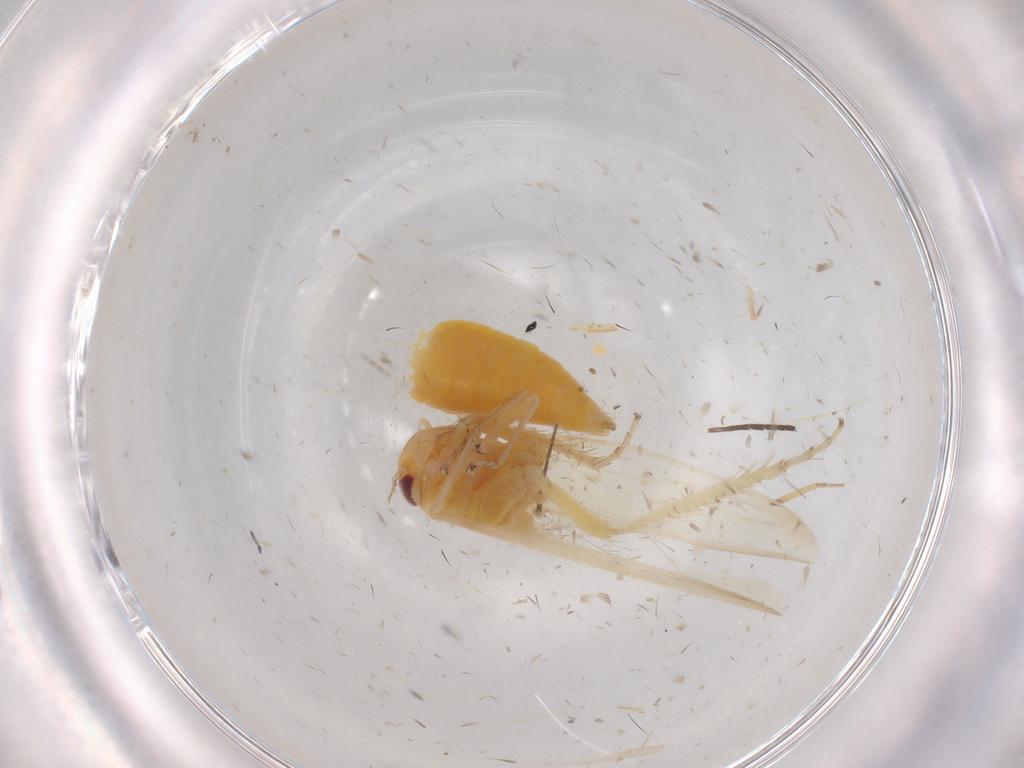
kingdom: Animalia
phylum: Arthropoda
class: Insecta
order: Hemiptera
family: Cicadellidae
